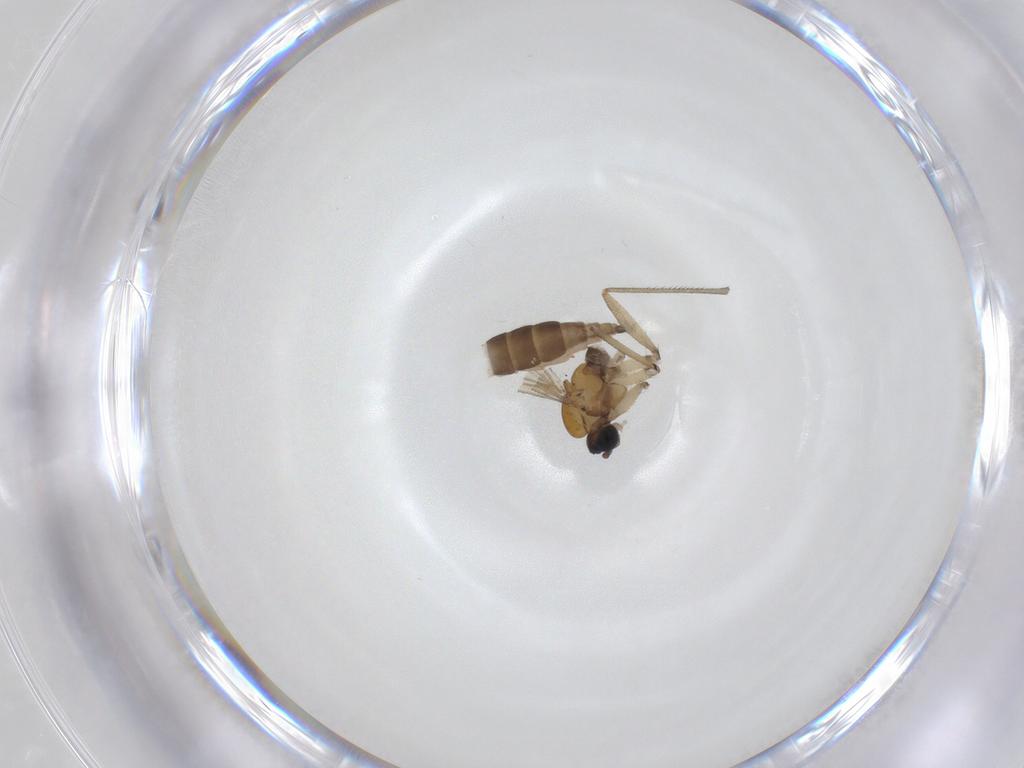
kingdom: Animalia
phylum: Arthropoda
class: Insecta
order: Diptera
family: Sciaridae
